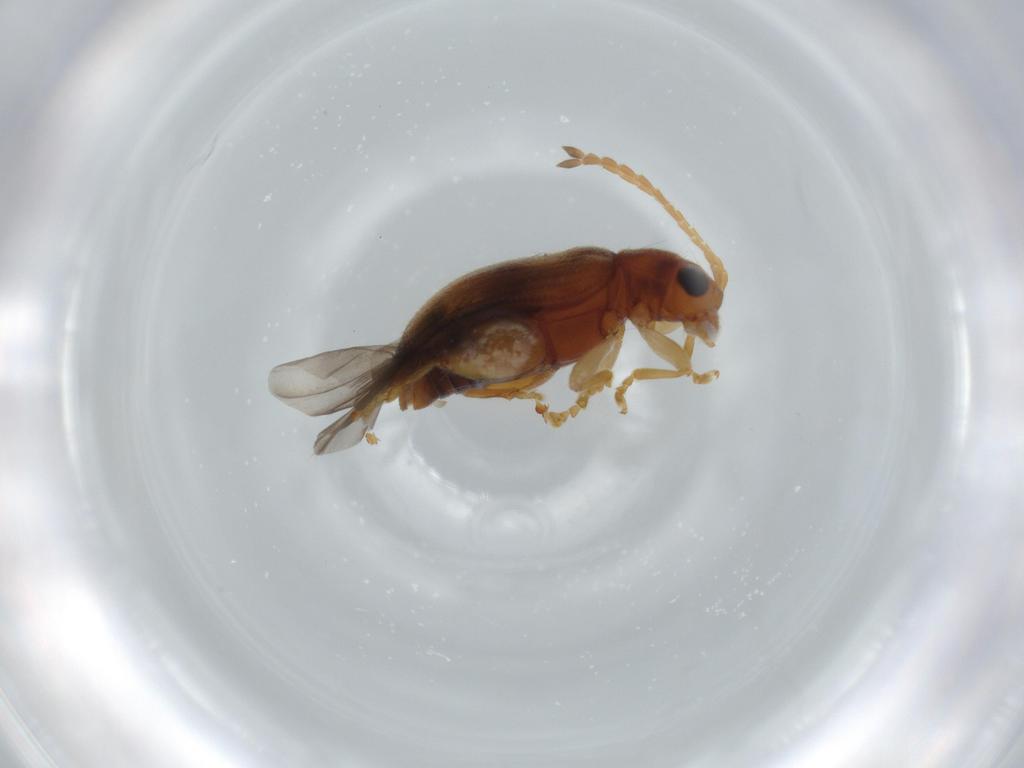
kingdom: Animalia
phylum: Arthropoda
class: Insecta
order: Coleoptera
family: Chrysomelidae
